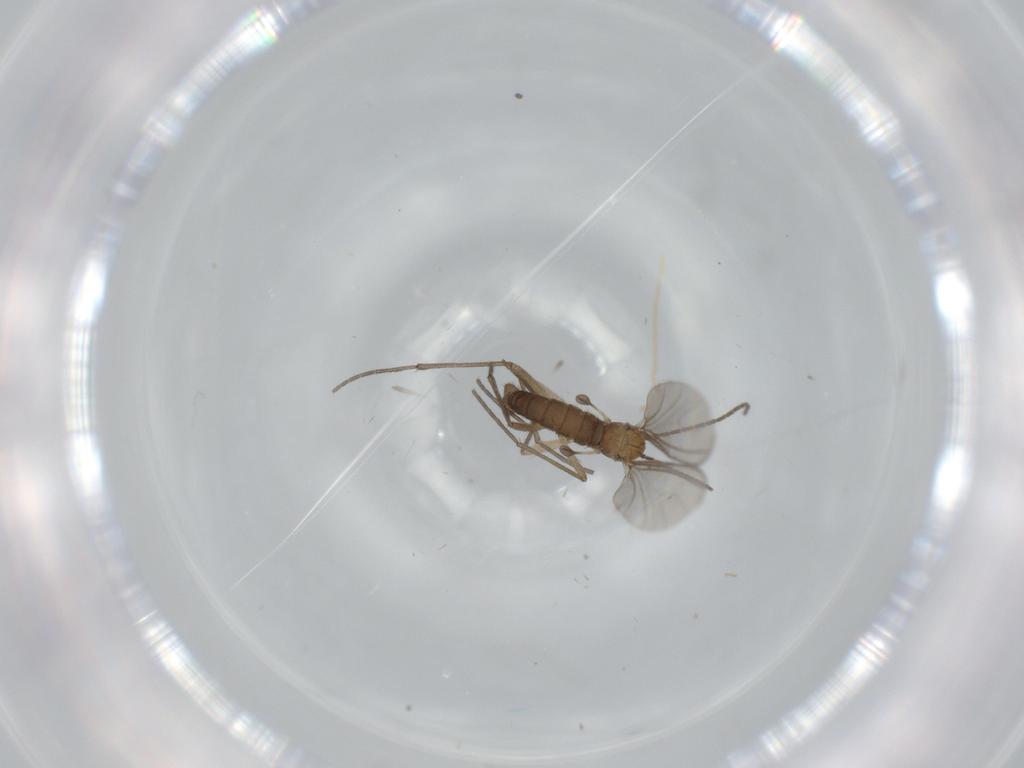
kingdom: Animalia
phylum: Arthropoda
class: Insecta
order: Diptera
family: Sciaridae
